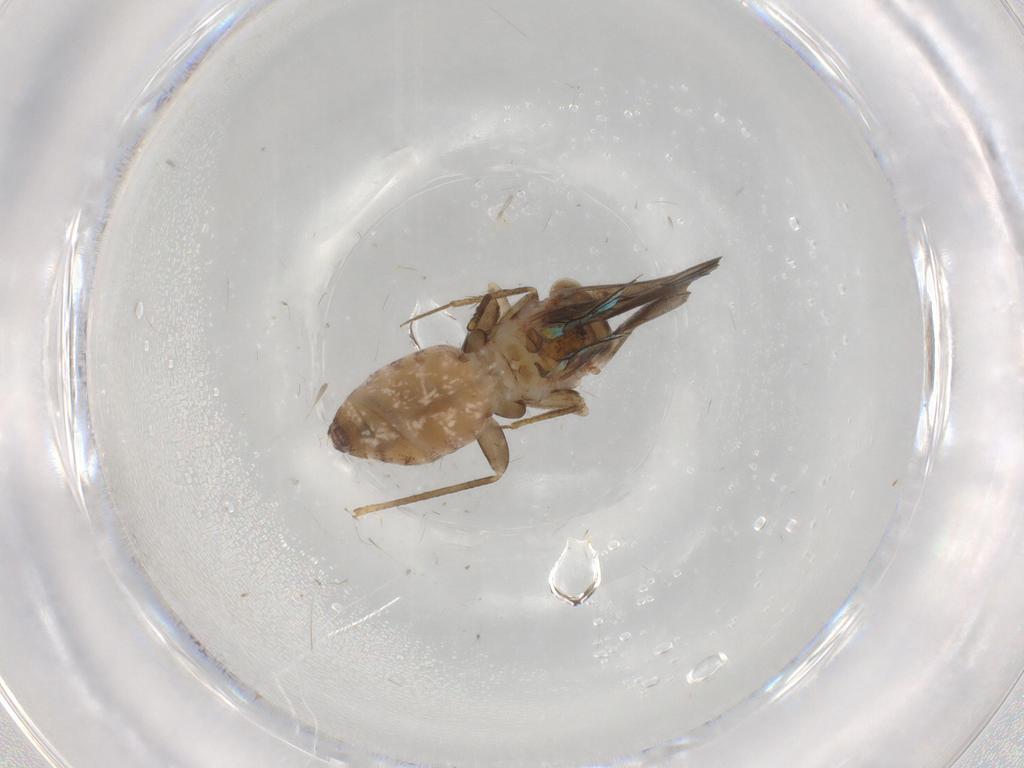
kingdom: Animalia
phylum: Arthropoda
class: Insecta
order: Psocodea
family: Lepidopsocidae
